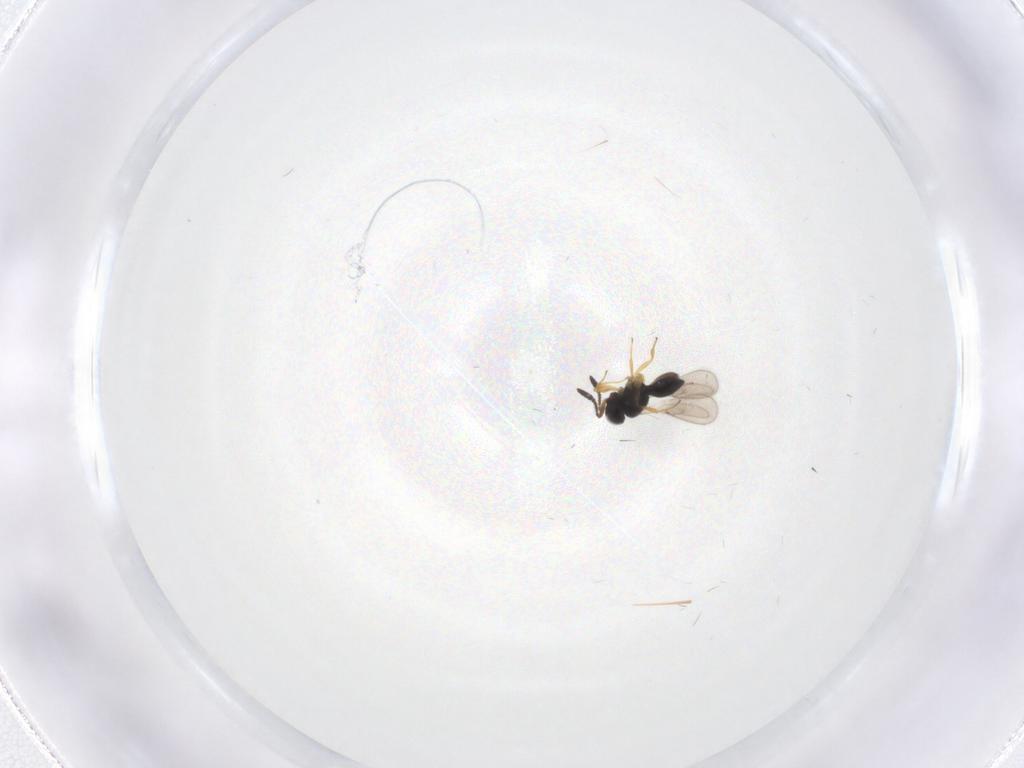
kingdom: Animalia
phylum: Arthropoda
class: Insecta
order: Hymenoptera
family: Scelionidae
